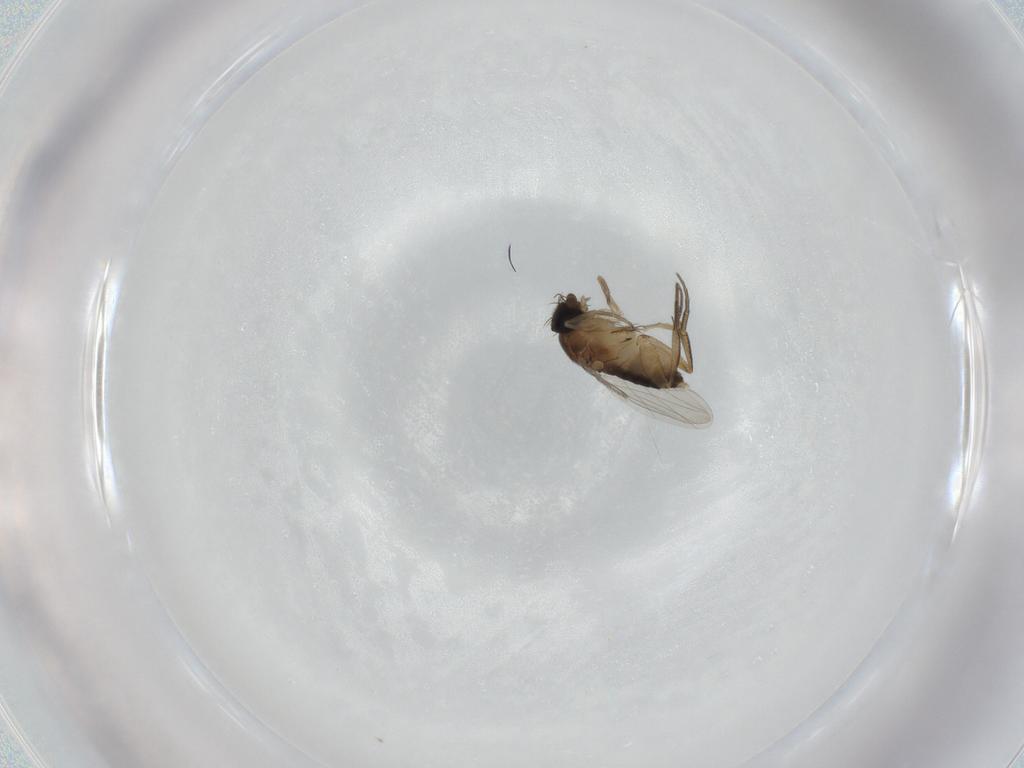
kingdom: Animalia
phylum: Arthropoda
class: Insecta
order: Diptera
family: Phoridae
